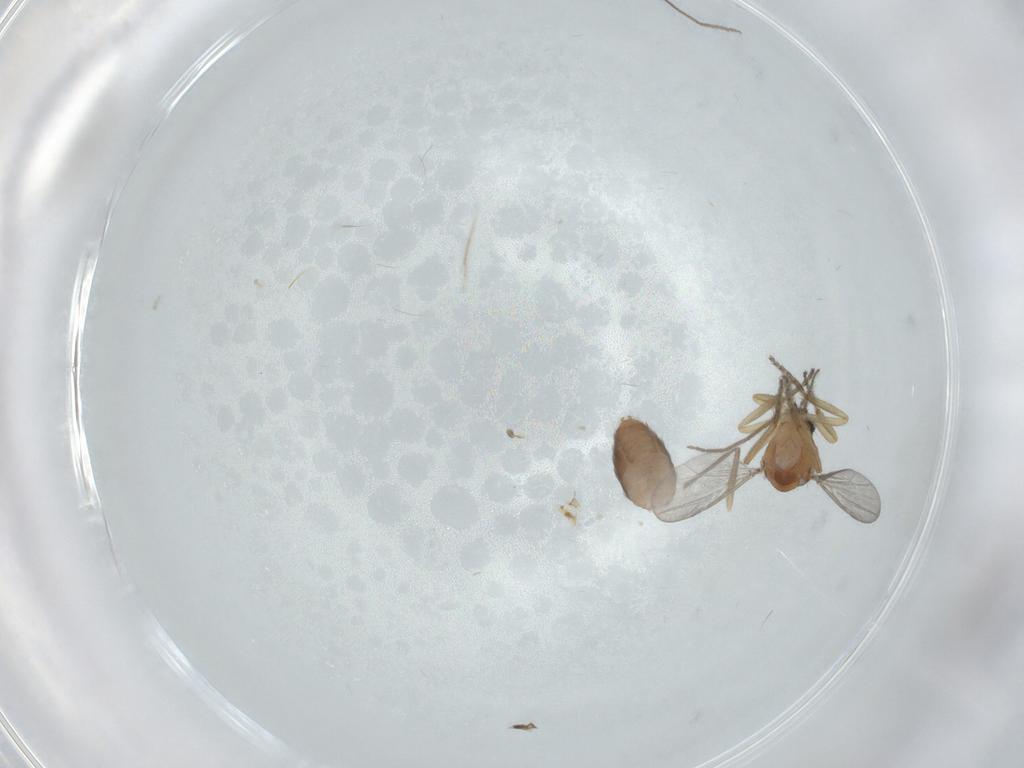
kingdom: Animalia
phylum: Arthropoda
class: Insecta
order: Diptera
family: Ceratopogonidae
